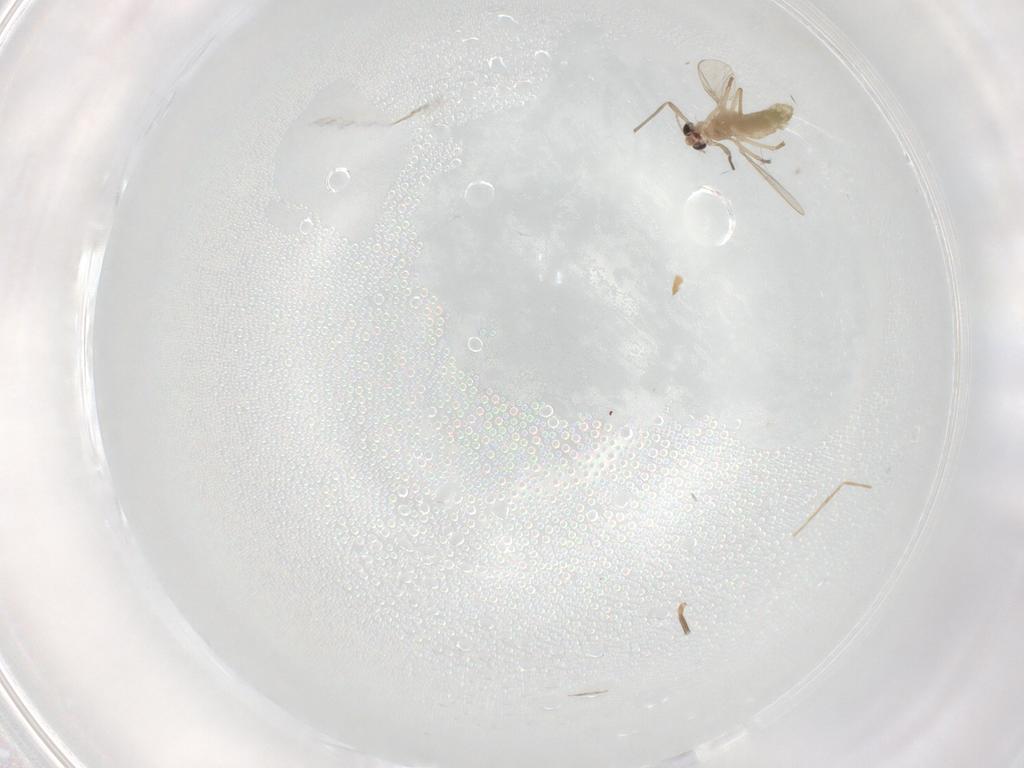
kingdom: Animalia
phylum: Arthropoda
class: Insecta
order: Diptera
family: Chironomidae
